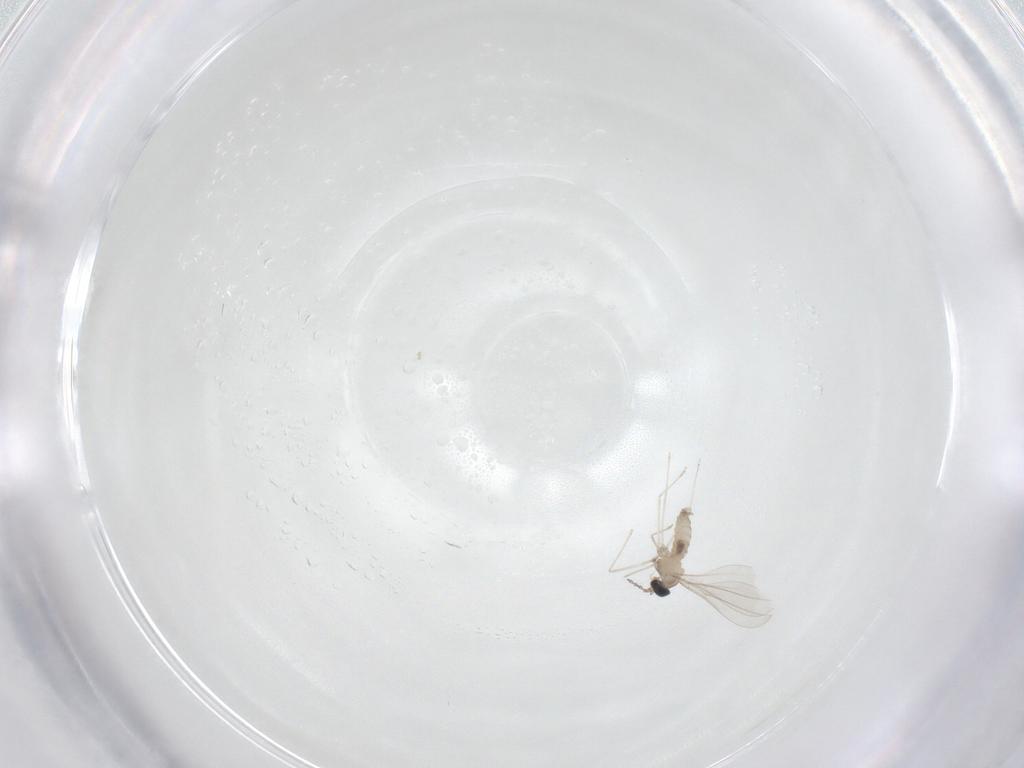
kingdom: Animalia
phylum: Arthropoda
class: Insecta
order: Diptera
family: Cecidomyiidae
